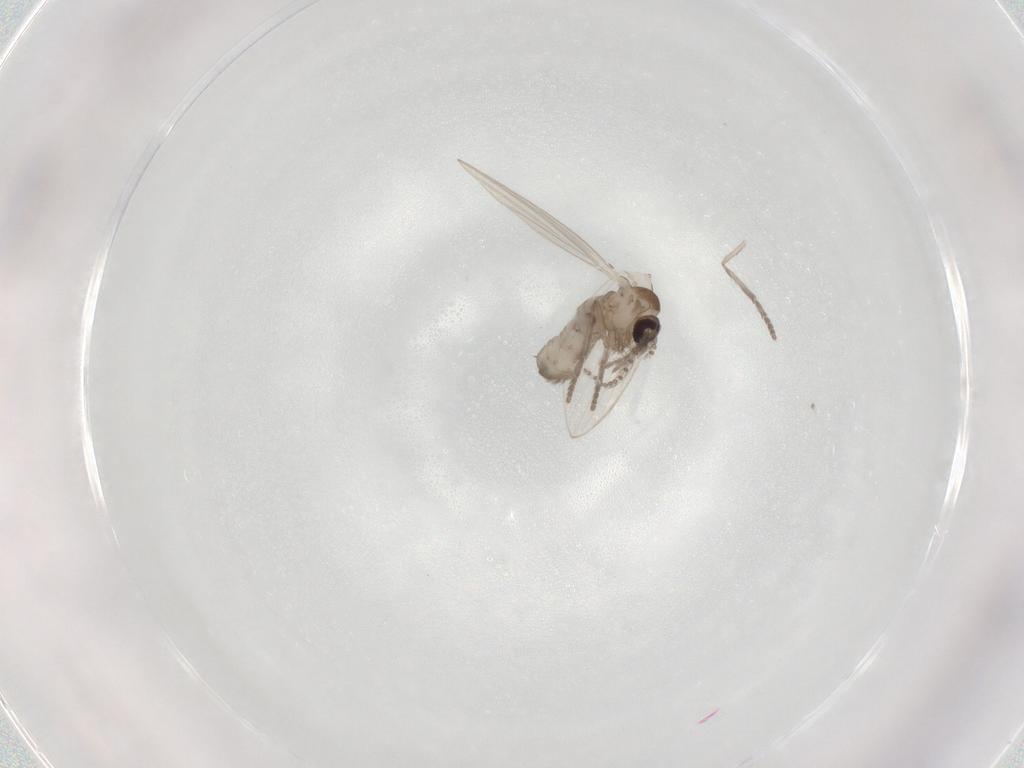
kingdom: Animalia
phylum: Arthropoda
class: Insecta
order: Diptera
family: Psychodidae
